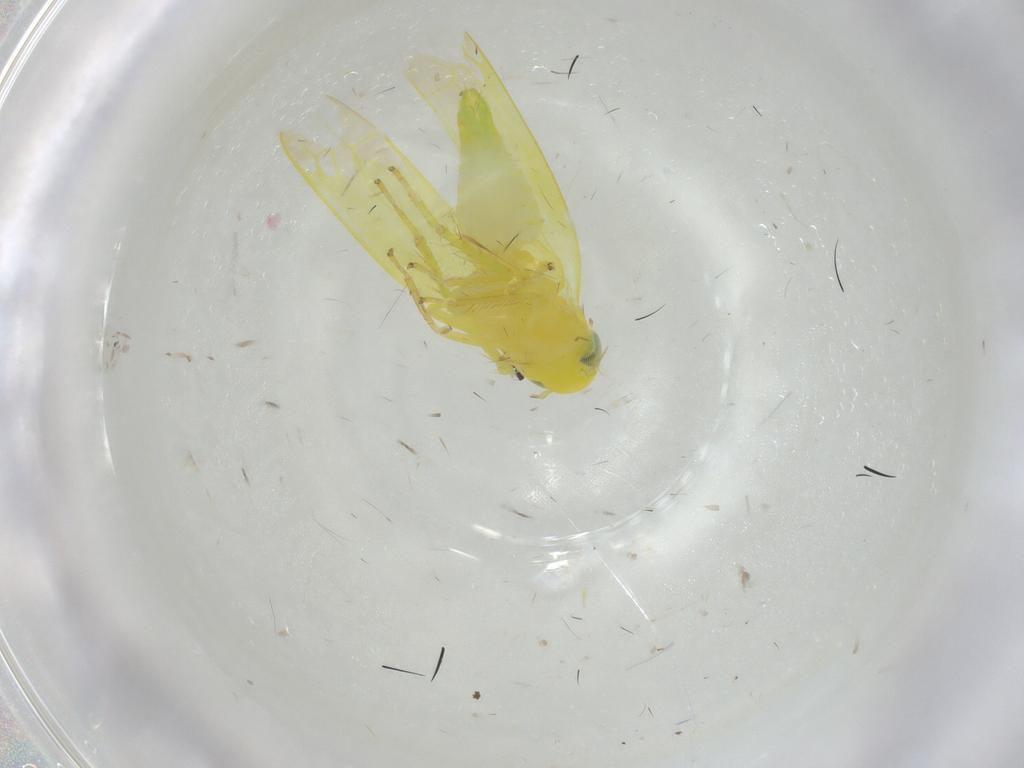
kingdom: Animalia
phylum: Arthropoda
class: Insecta
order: Hemiptera
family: Cicadellidae
